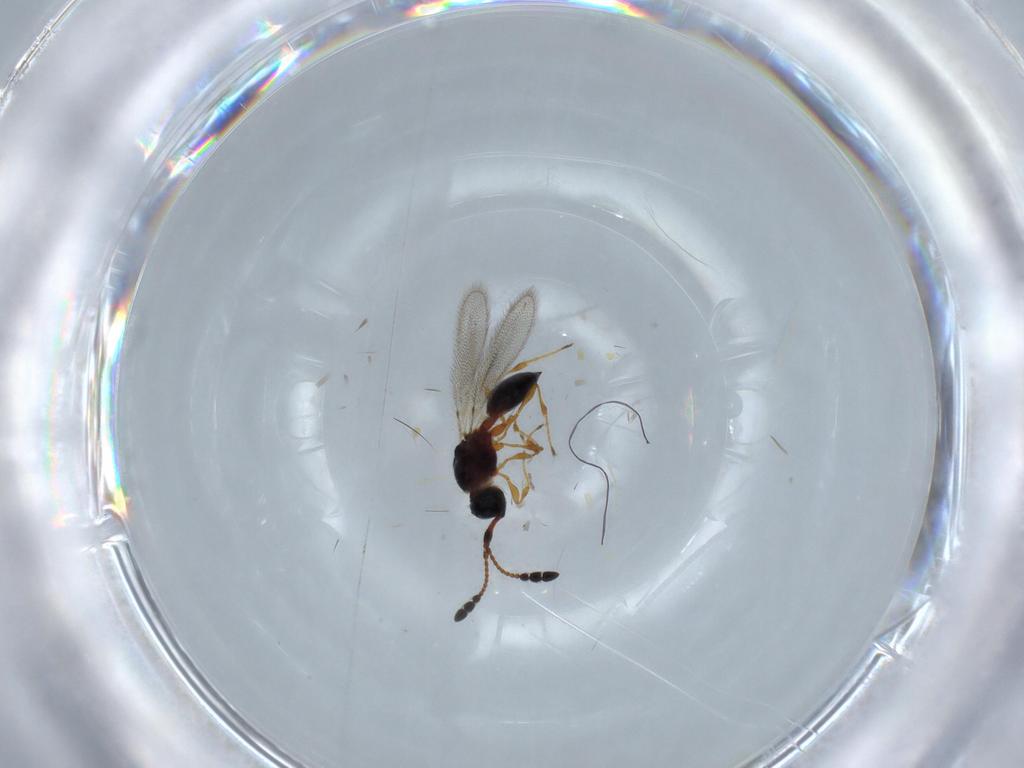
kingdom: Animalia
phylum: Arthropoda
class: Insecta
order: Hymenoptera
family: Diapriidae
